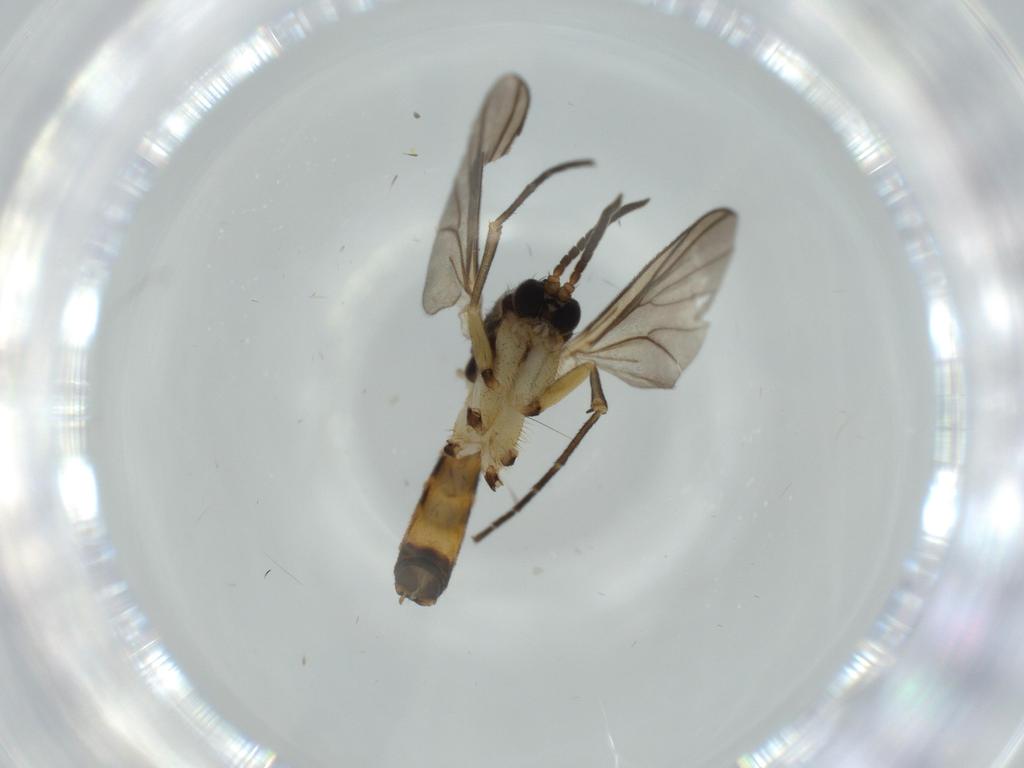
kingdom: Animalia
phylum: Arthropoda
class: Insecta
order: Diptera
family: Cecidomyiidae
